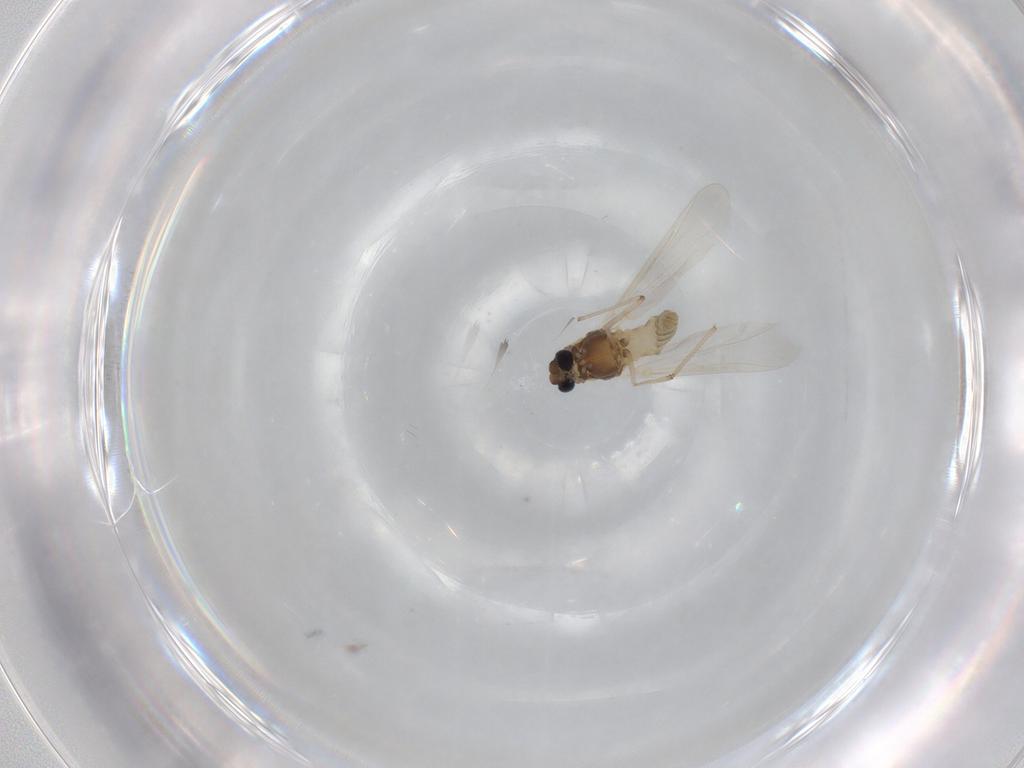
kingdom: Animalia
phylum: Arthropoda
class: Insecta
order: Diptera
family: Chironomidae
